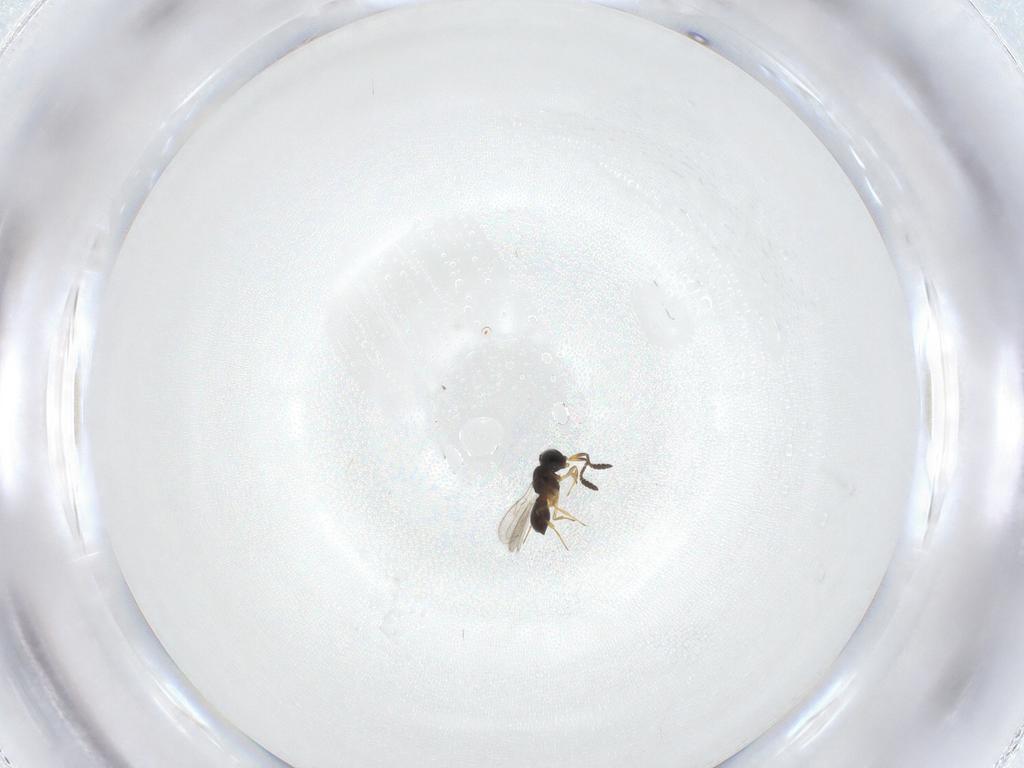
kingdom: Animalia
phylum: Arthropoda
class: Insecta
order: Hymenoptera
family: Scelionidae
